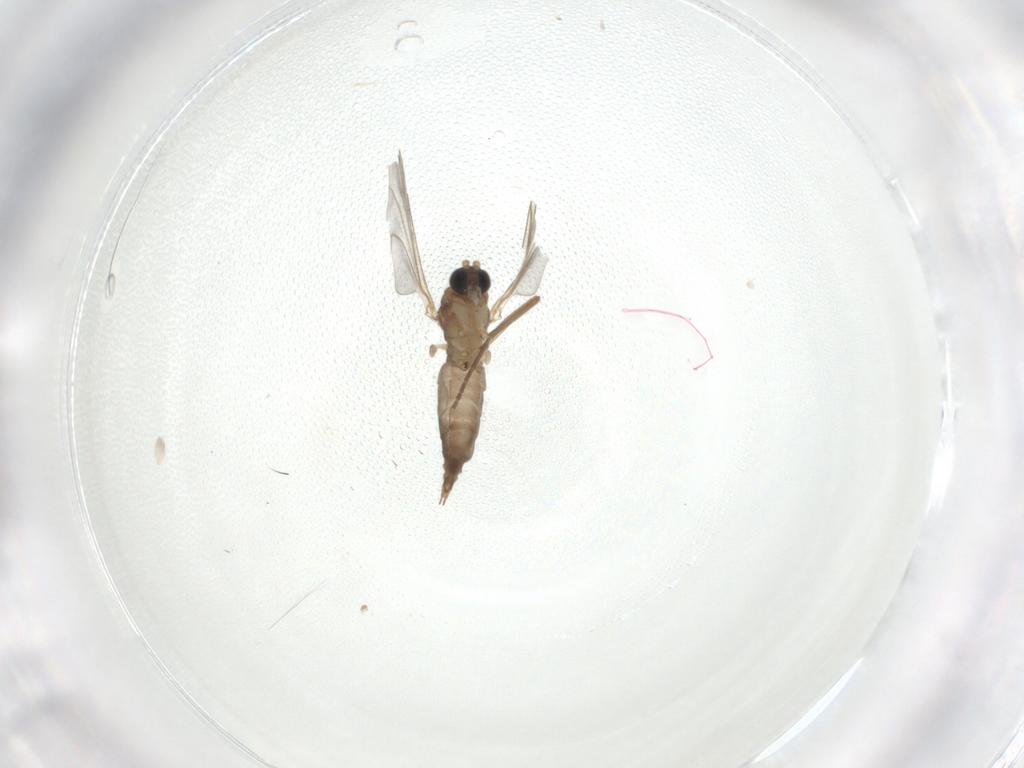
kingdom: Animalia
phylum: Arthropoda
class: Insecta
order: Diptera
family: Sciaridae
